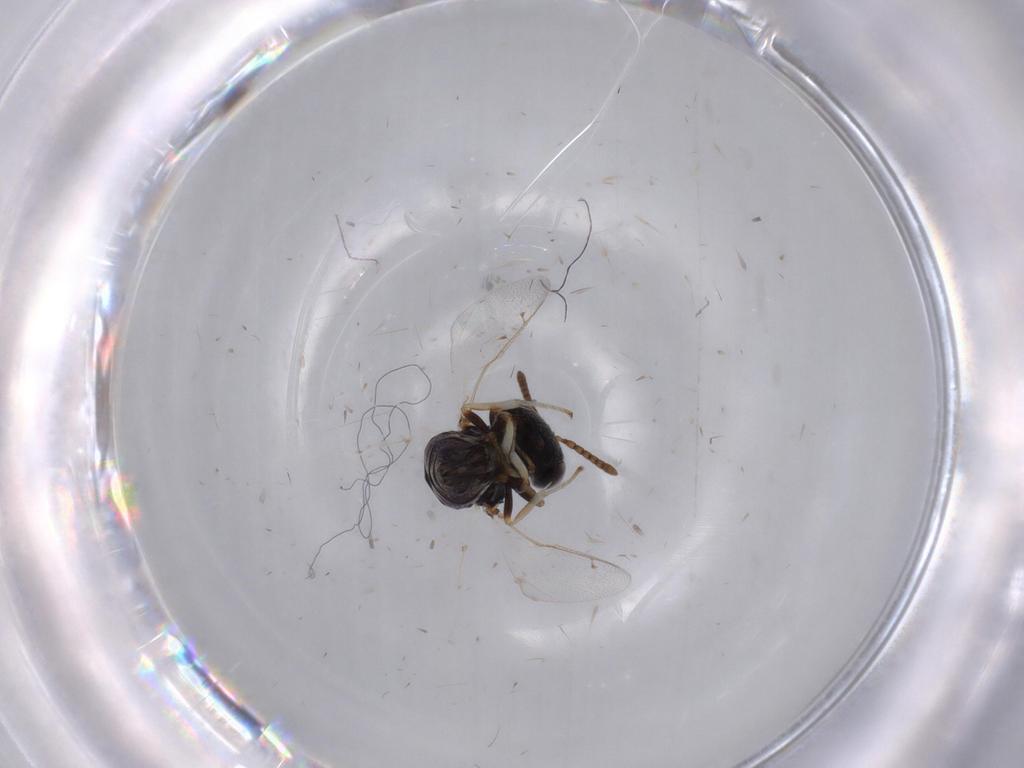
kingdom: Animalia
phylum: Arthropoda
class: Insecta
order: Hymenoptera
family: Pteromalidae
